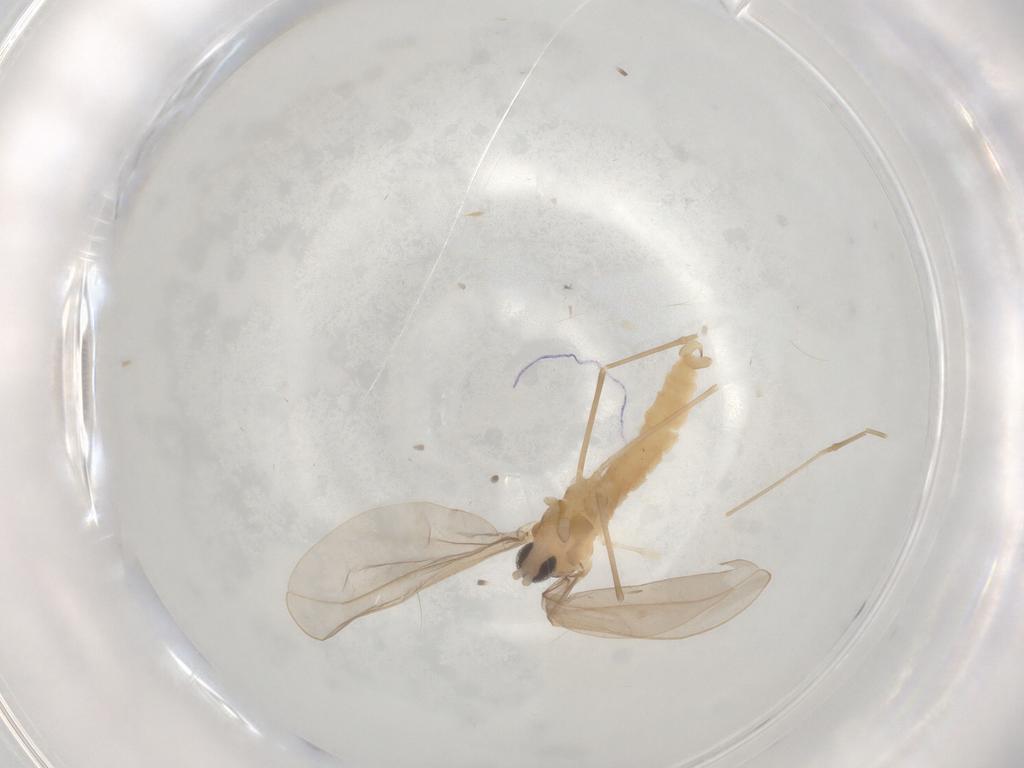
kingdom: Animalia
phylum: Arthropoda
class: Insecta
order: Diptera
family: Cecidomyiidae
